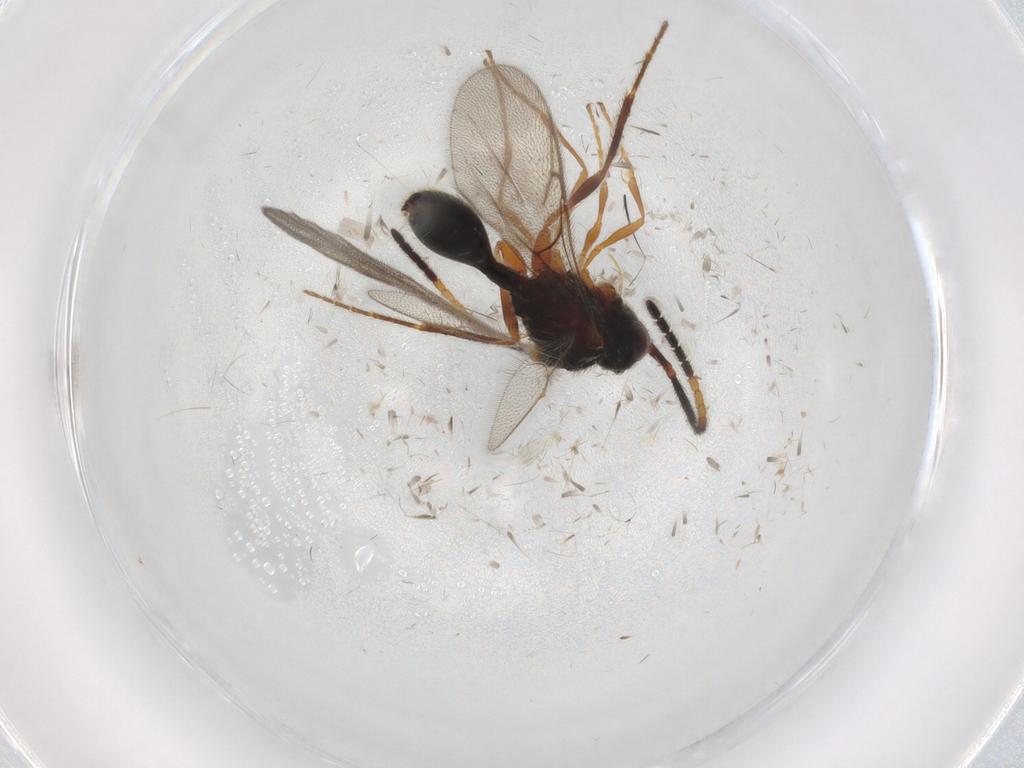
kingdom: Animalia
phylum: Arthropoda
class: Insecta
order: Hymenoptera
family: Diapriidae
